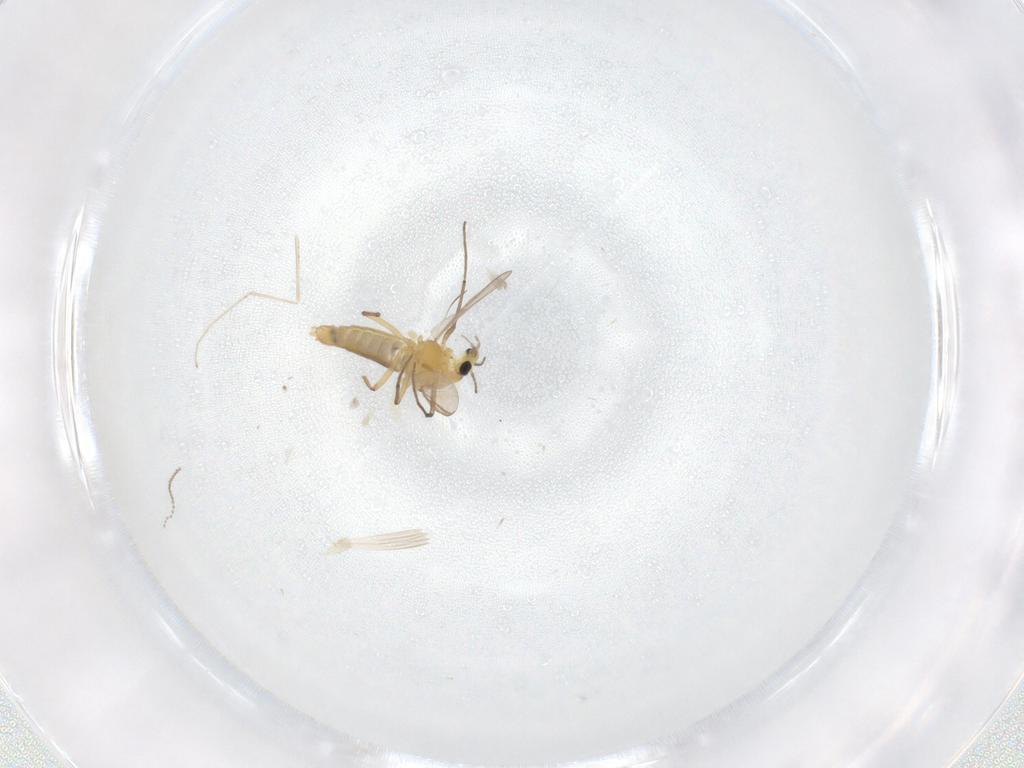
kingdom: Animalia
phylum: Arthropoda
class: Insecta
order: Diptera
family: Chironomidae
